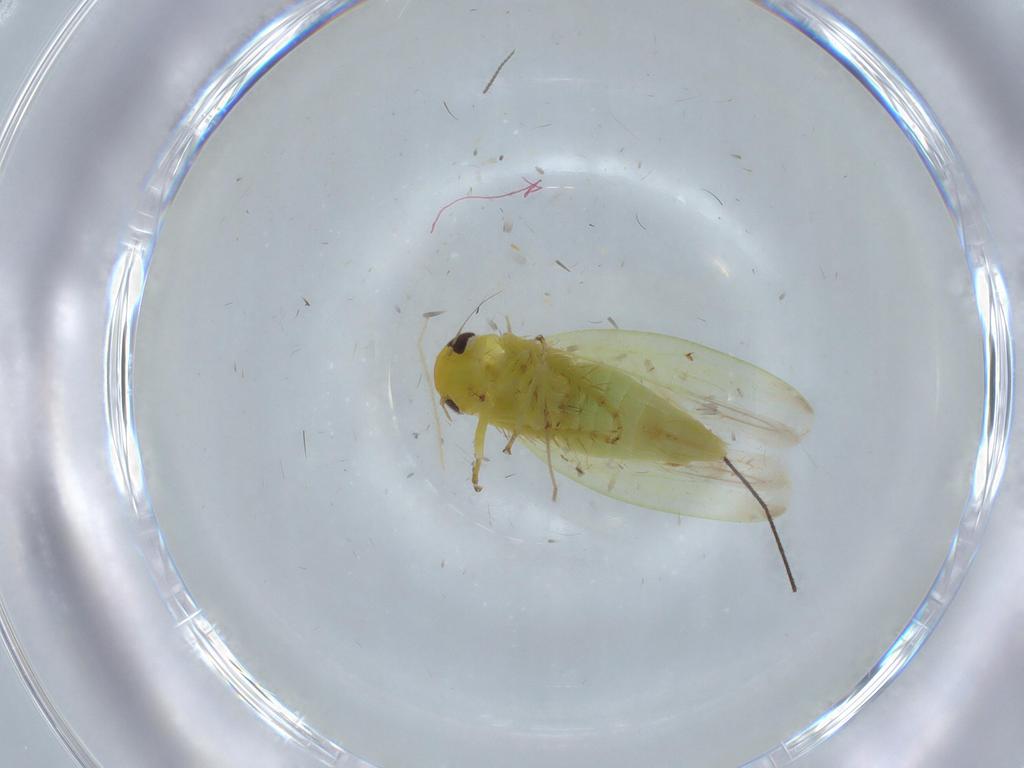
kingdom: Animalia
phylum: Arthropoda
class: Insecta
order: Hemiptera
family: Cicadellidae
